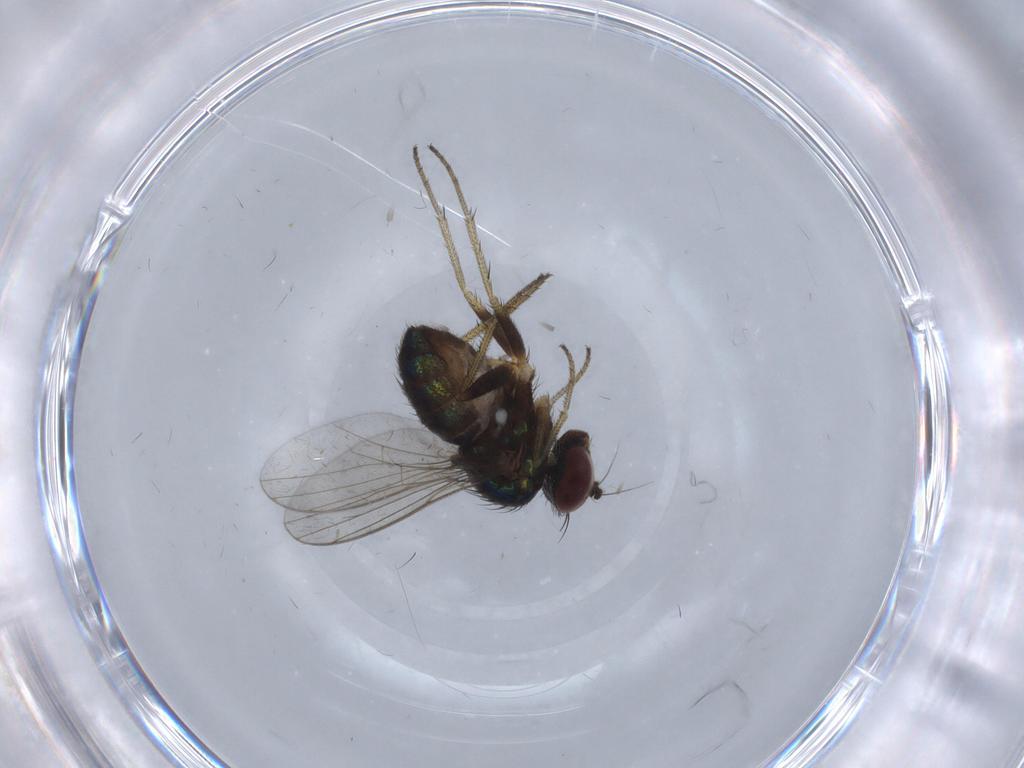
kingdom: Animalia
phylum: Arthropoda
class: Insecta
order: Diptera
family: Dolichopodidae
